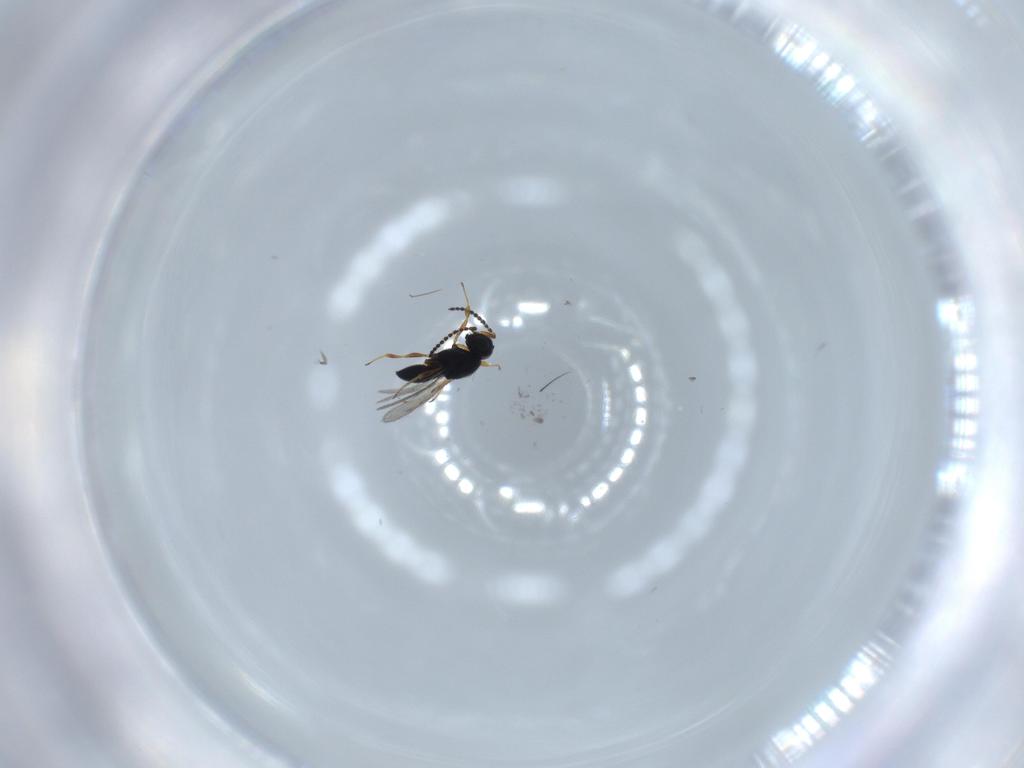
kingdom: Animalia
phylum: Arthropoda
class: Insecta
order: Hymenoptera
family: Scelionidae
